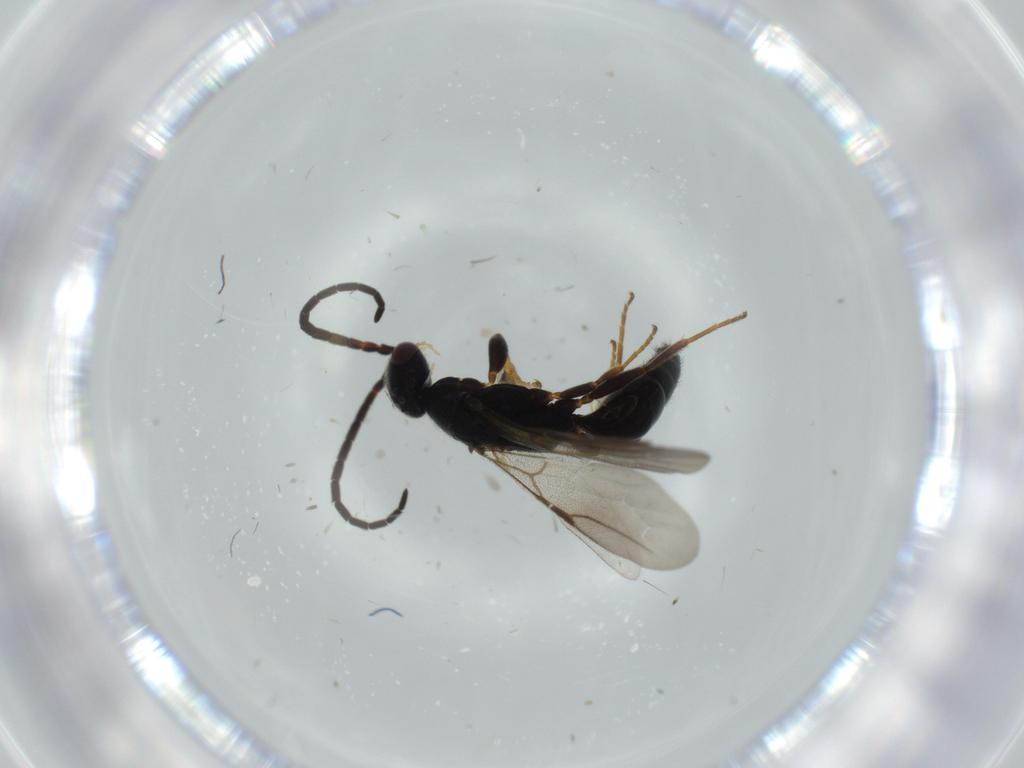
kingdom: Animalia
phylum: Arthropoda
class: Insecta
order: Hymenoptera
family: Bethylidae
